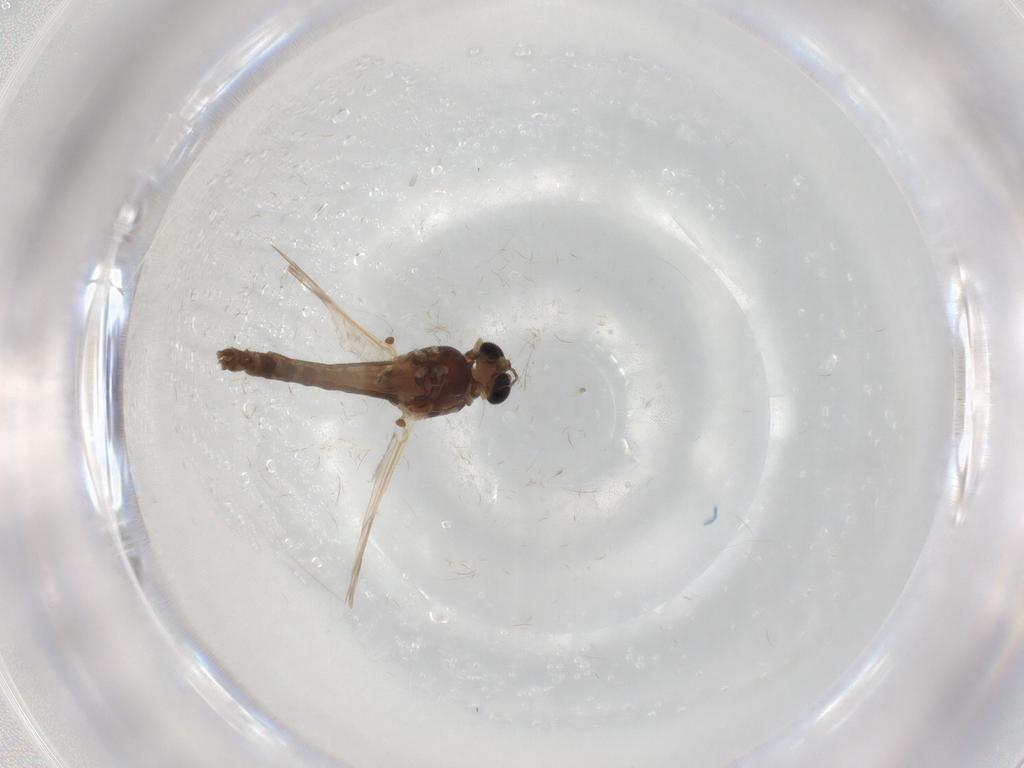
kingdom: Animalia
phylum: Arthropoda
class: Insecta
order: Diptera
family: Chironomidae
